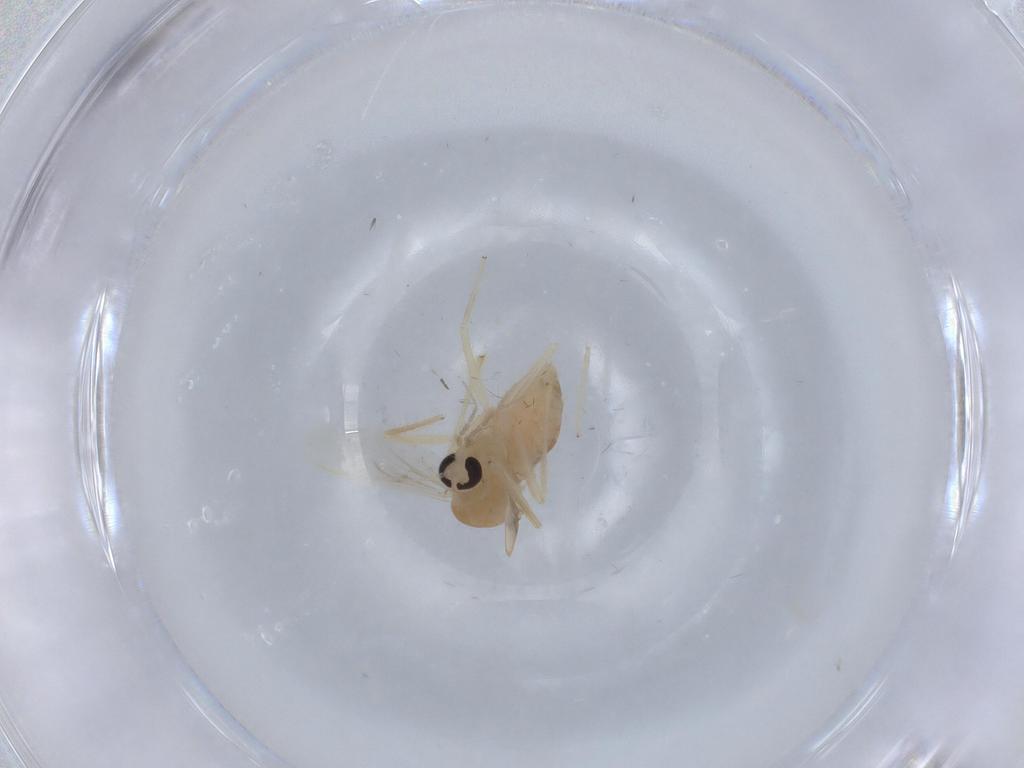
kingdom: Animalia
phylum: Arthropoda
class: Insecta
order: Diptera
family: Chironomidae
